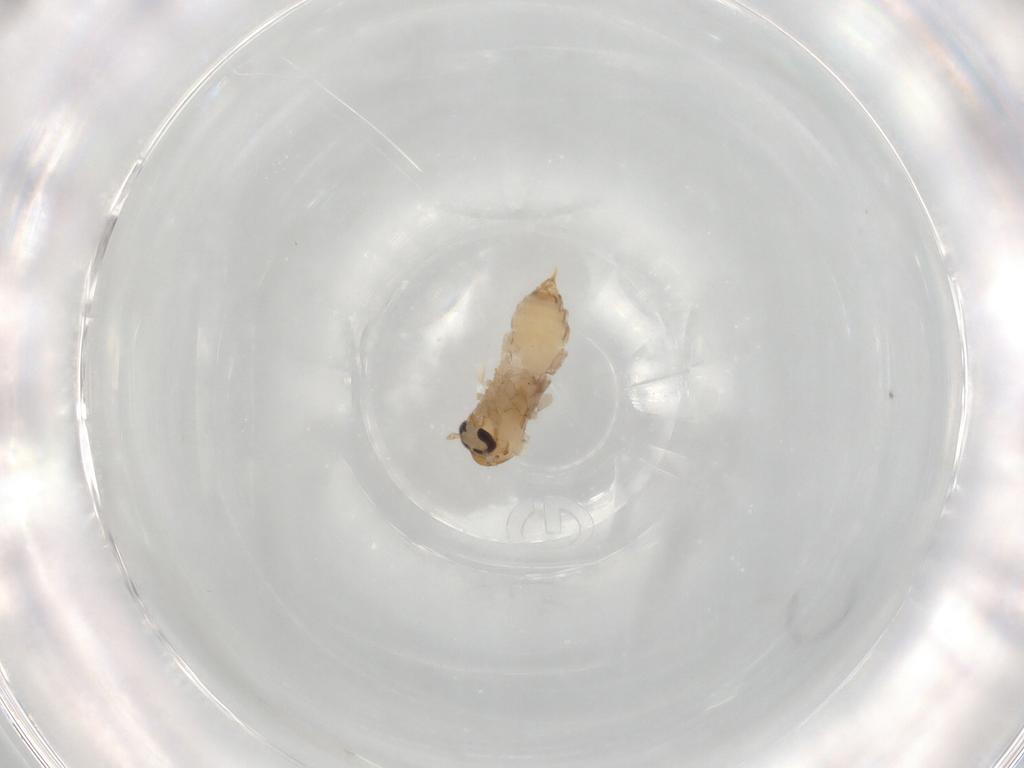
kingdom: Animalia
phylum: Arthropoda
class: Insecta
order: Diptera
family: Psychodidae
